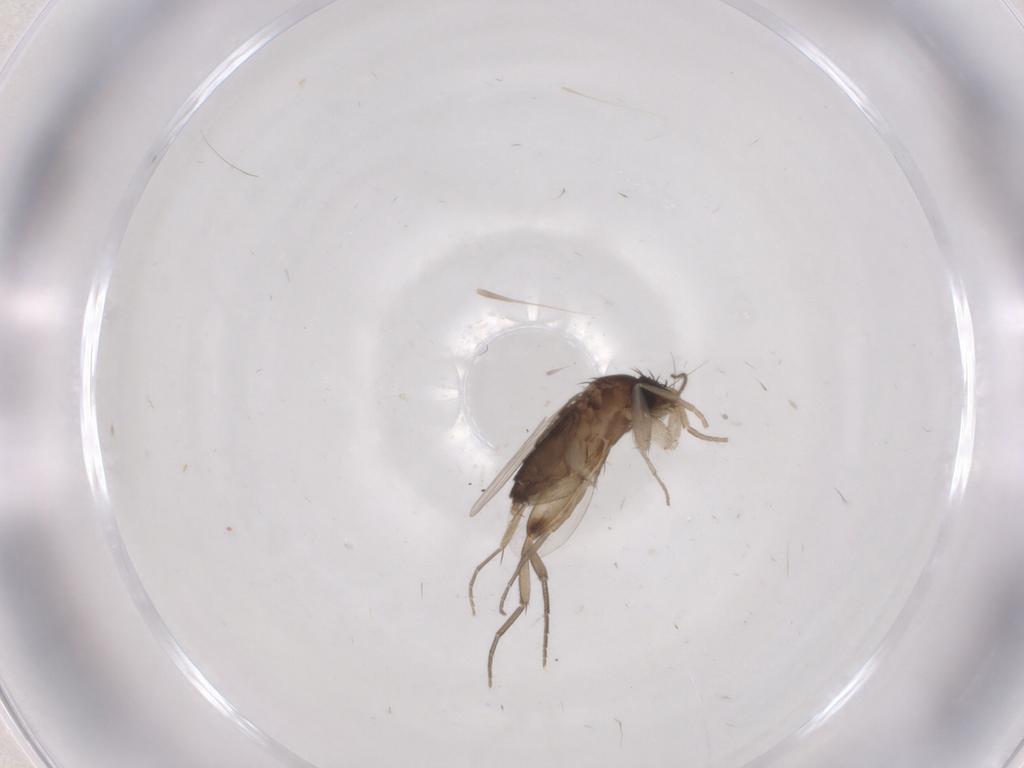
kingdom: Animalia
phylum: Arthropoda
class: Insecta
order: Diptera
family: Phoridae
